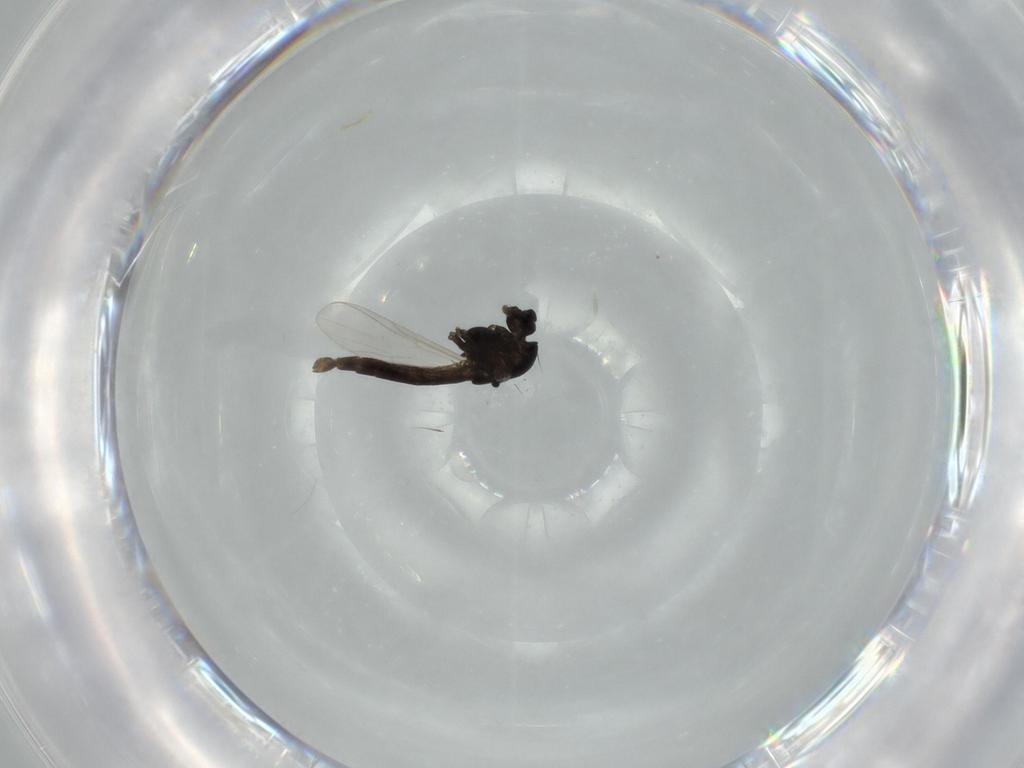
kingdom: Animalia
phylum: Arthropoda
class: Insecta
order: Diptera
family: Chironomidae
